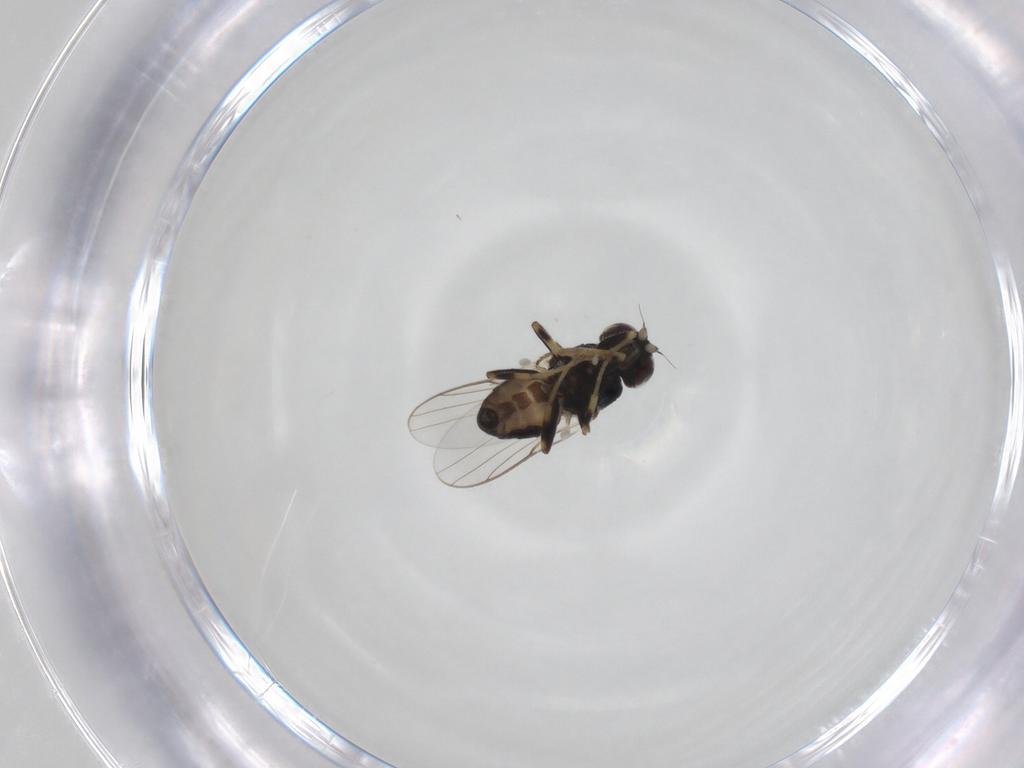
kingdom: Animalia
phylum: Arthropoda
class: Insecta
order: Diptera
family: Chloropidae
